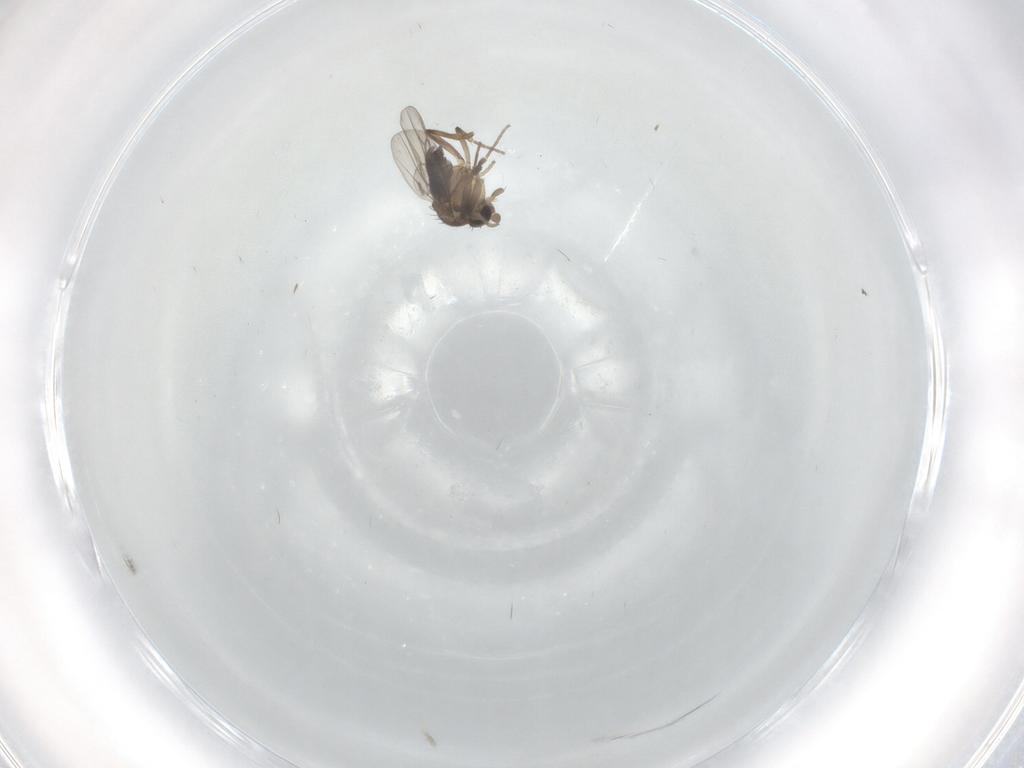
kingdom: Animalia
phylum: Arthropoda
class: Insecta
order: Diptera
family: Phoridae
